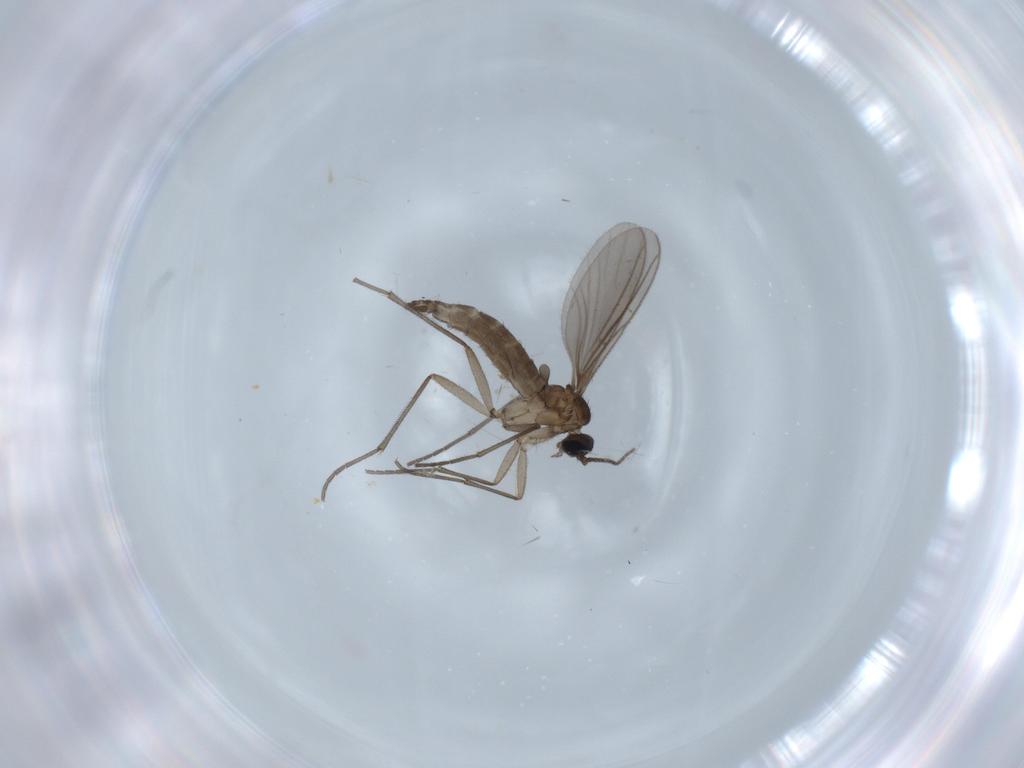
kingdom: Animalia
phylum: Arthropoda
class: Insecta
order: Diptera
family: Sciaridae
